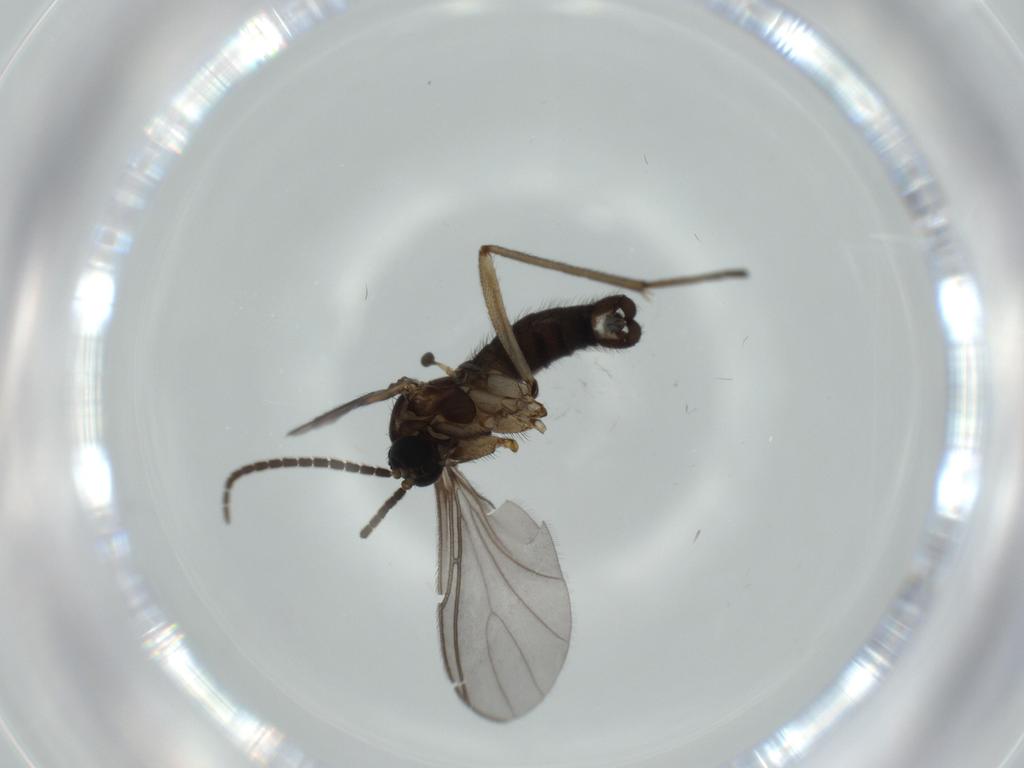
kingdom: Animalia
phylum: Arthropoda
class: Insecta
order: Diptera
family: Sciaridae
